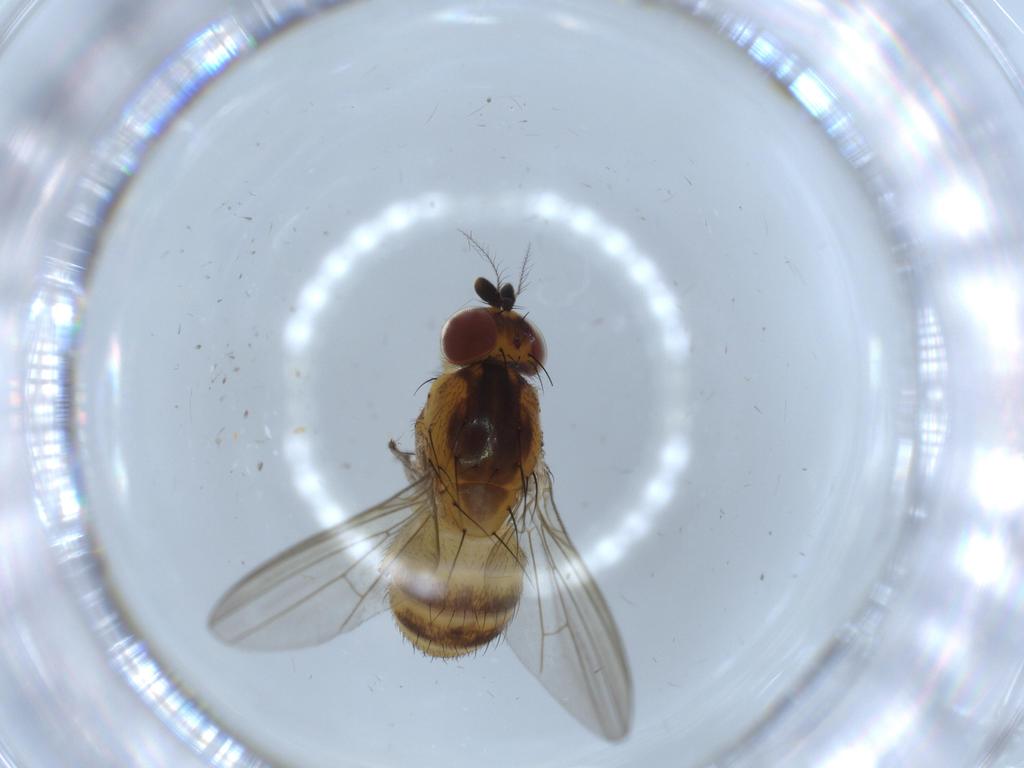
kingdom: Animalia
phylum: Arthropoda
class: Insecta
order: Diptera
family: Lauxaniidae
